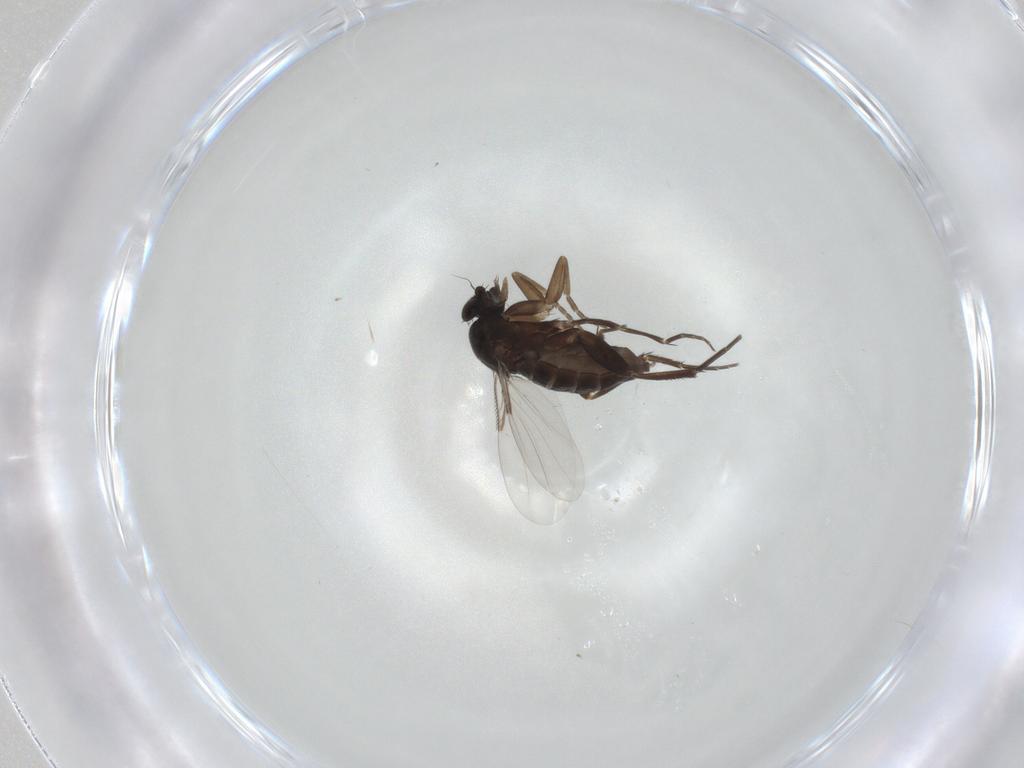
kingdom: Animalia
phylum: Arthropoda
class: Insecta
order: Diptera
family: Phoridae
